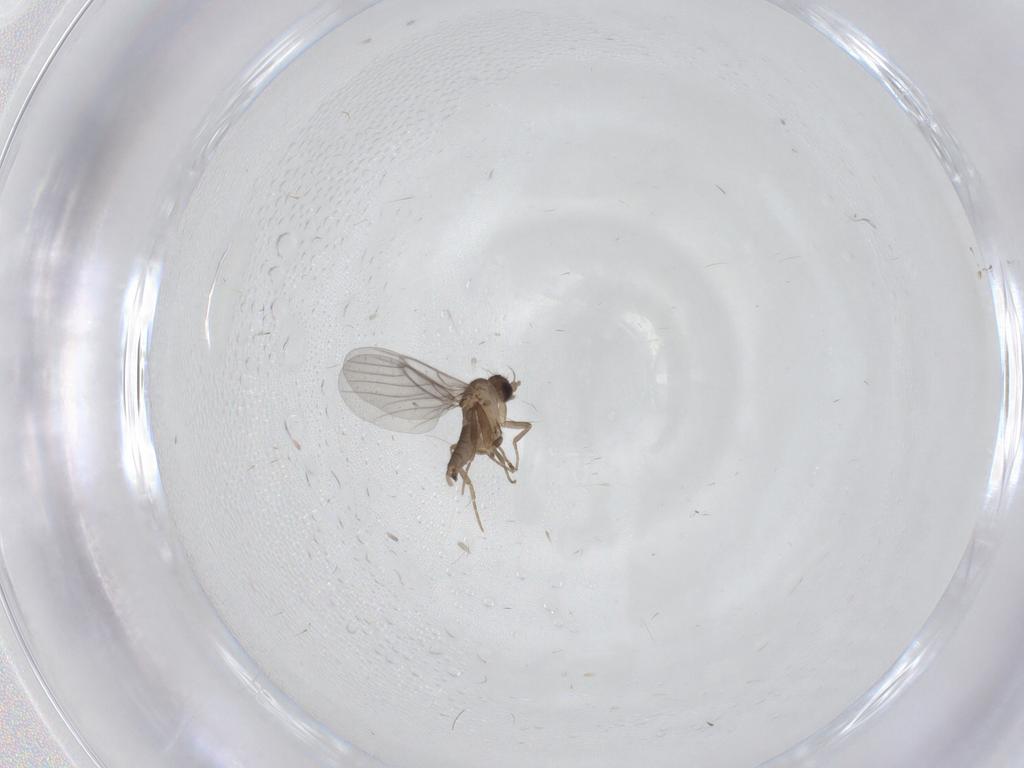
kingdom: Animalia
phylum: Arthropoda
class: Insecta
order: Diptera
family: Drosophilidae
